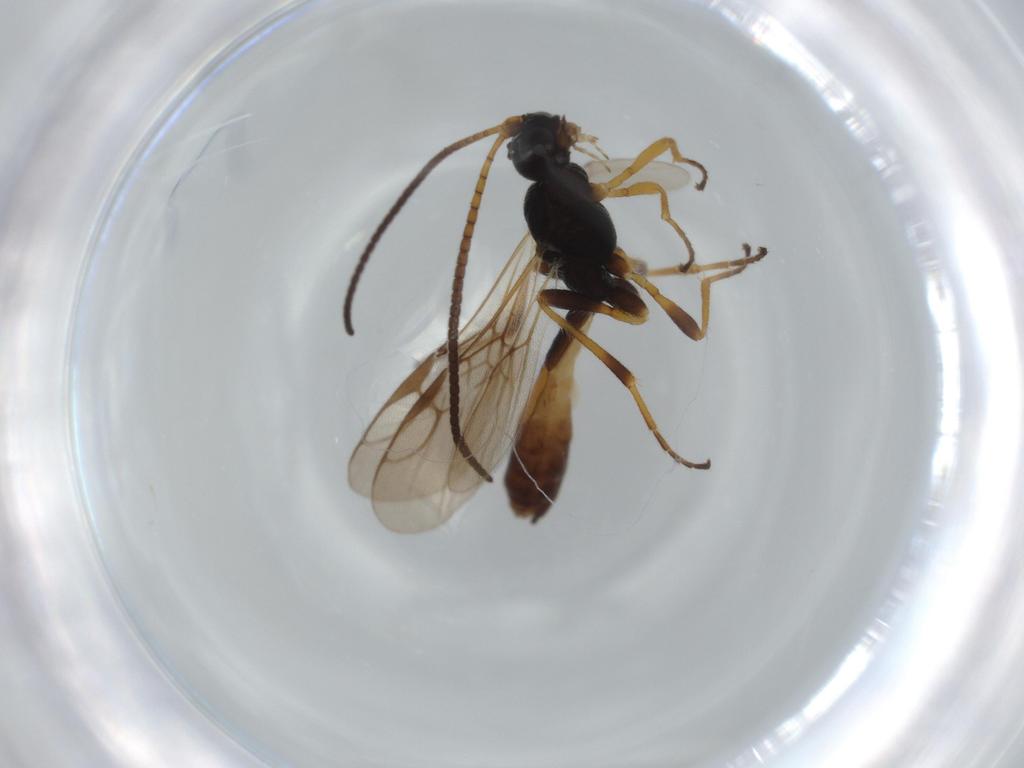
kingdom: Animalia
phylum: Arthropoda
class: Insecta
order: Hymenoptera
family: Braconidae
